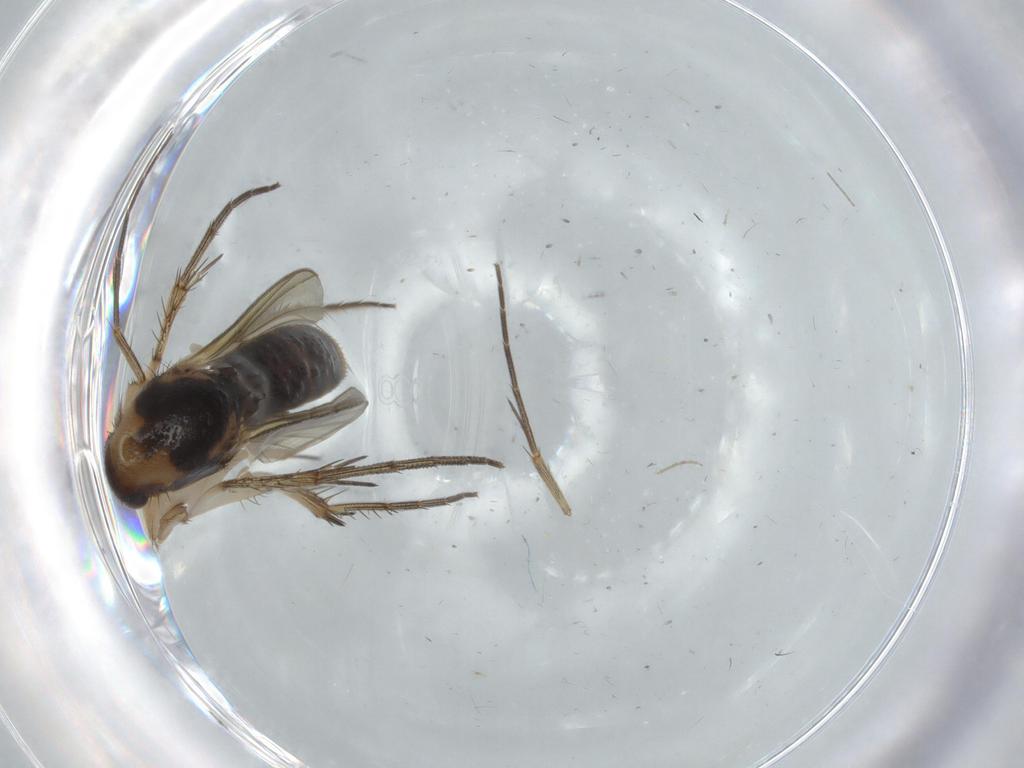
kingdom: Animalia
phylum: Arthropoda
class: Insecta
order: Diptera
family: Mycetophilidae
